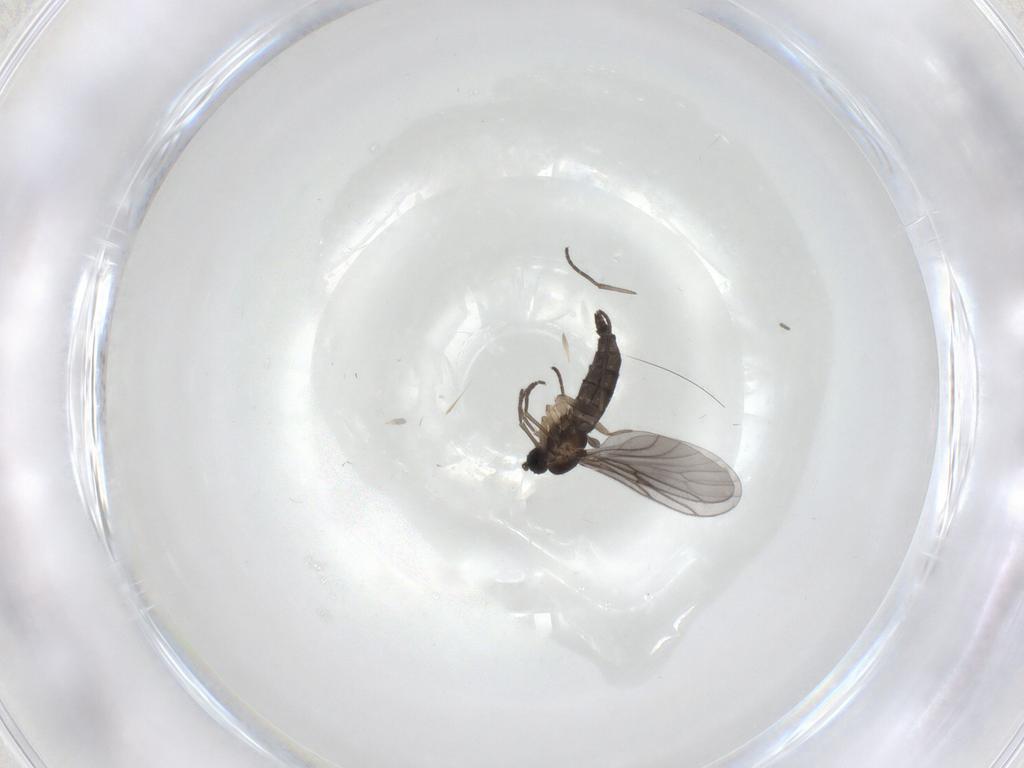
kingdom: Animalia
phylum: Arthropoda
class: Insecta
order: Diptera
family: Sciaridae
